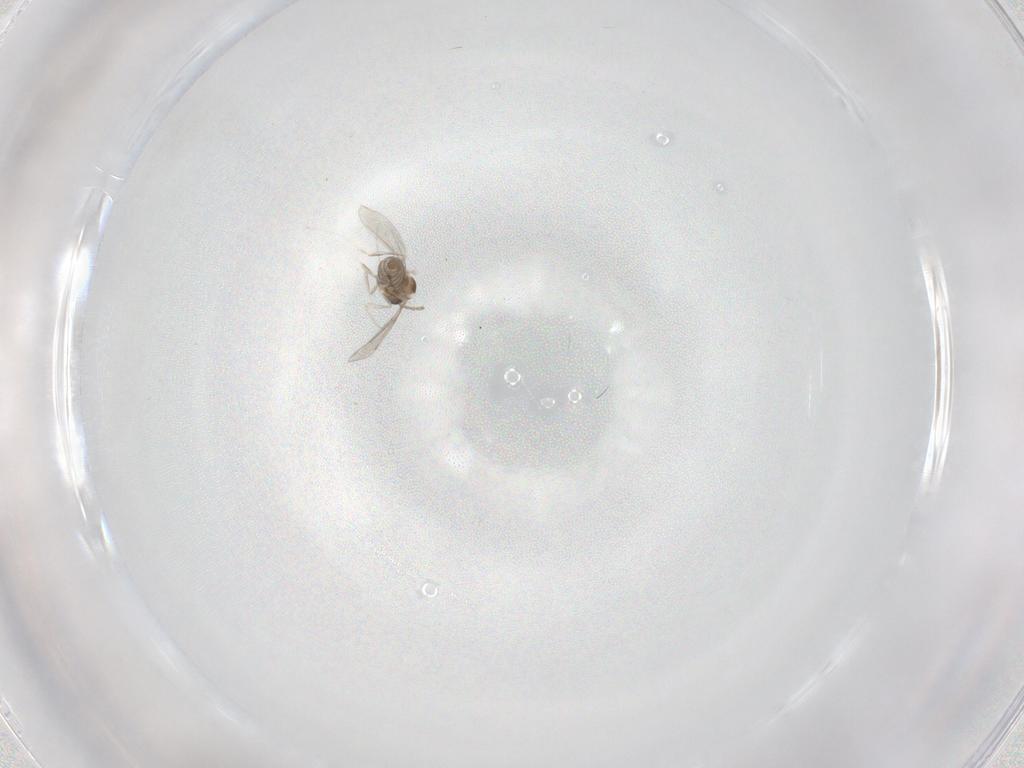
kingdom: Animalia
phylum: Arthropoda
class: Insecta
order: Diptera
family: Cecidomyiidae
